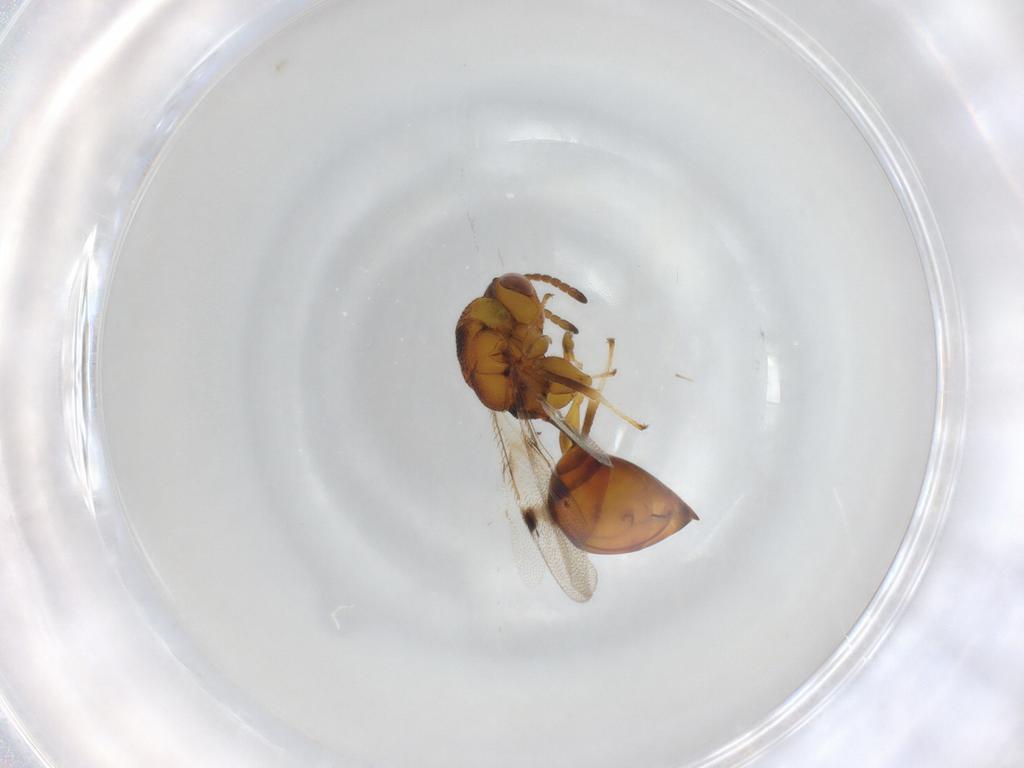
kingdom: Animalia
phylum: Arthropoda
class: Insecta
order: Hymenoptera
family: Eurytomidae
